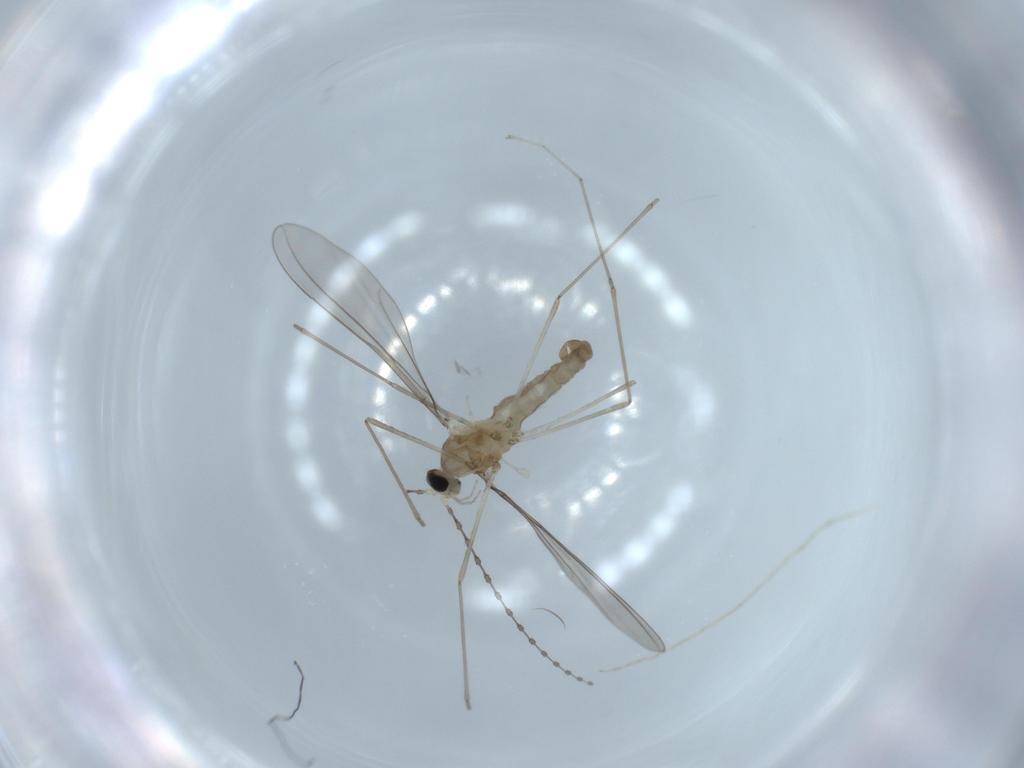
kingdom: Animalia
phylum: Arthropoda
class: Insecta
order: Diptera
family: Cecidomyiidae
